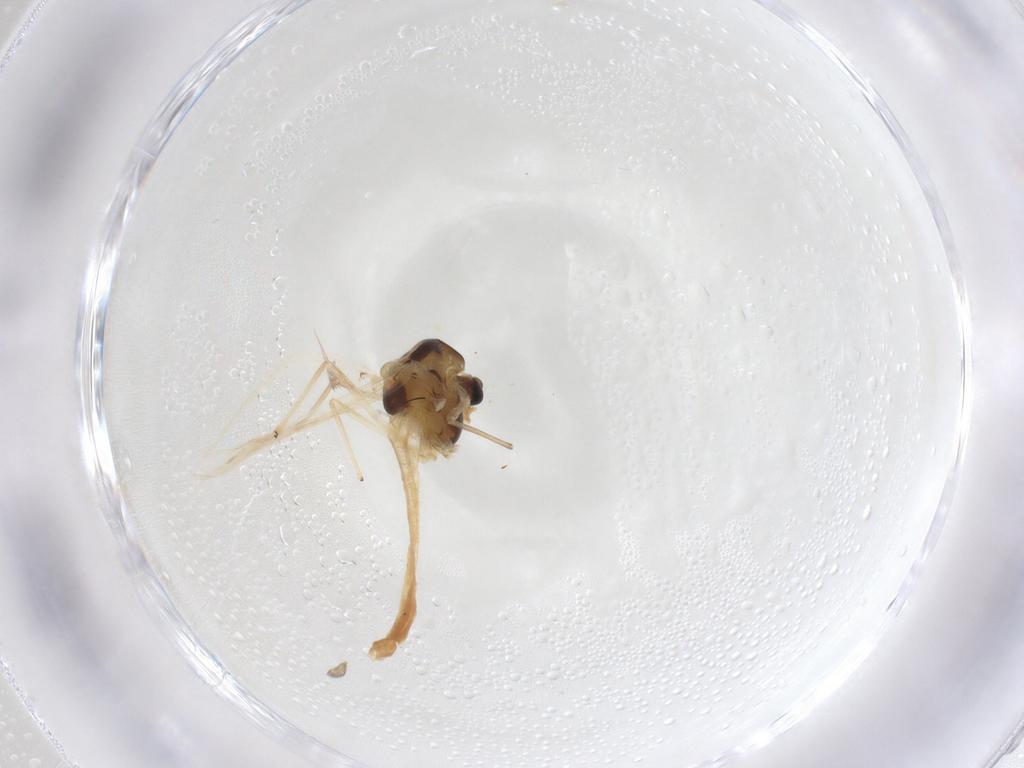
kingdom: Animalia
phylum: Arthropoda
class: Insecta
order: Diptera
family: Chironomidae
